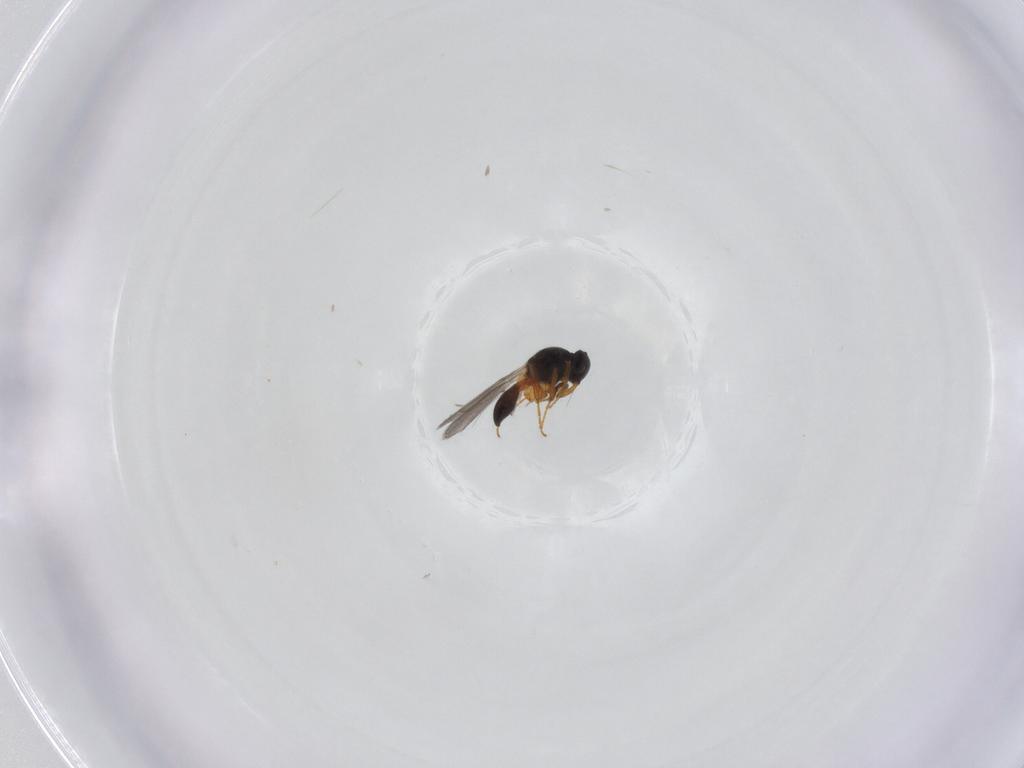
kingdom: Animalia
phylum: Arthropoda
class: Insecta
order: Hymenoptera
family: Platygastridae
